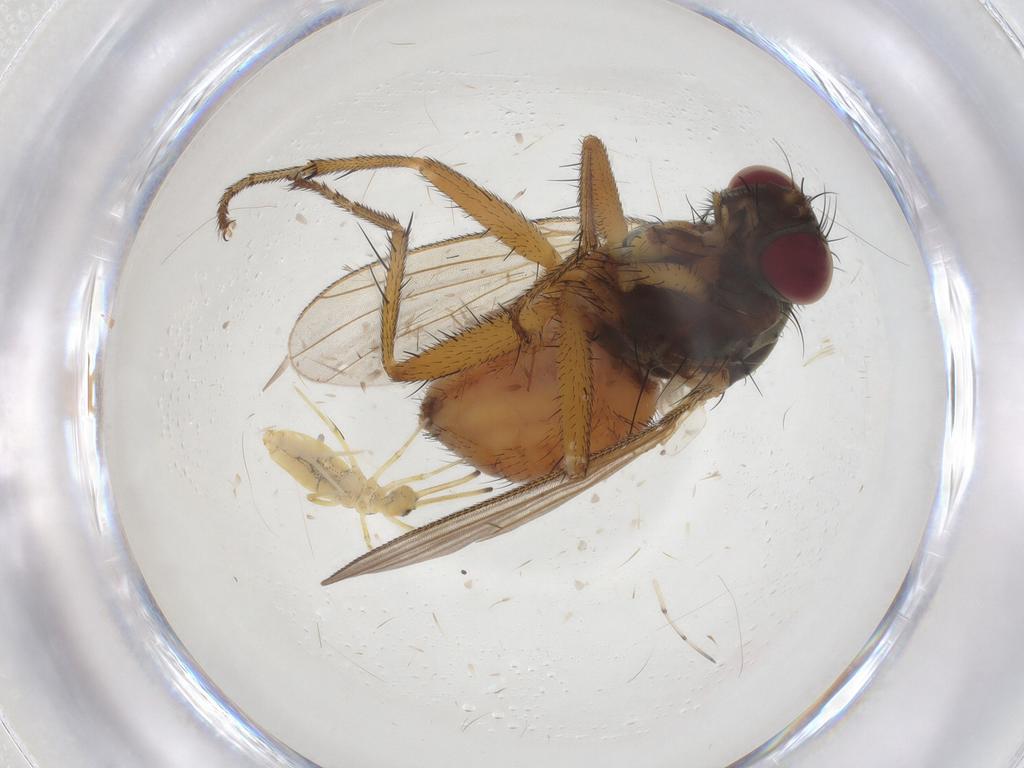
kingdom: Animalia
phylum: Arthropoda
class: Insecta
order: Diptera
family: Muscidae
